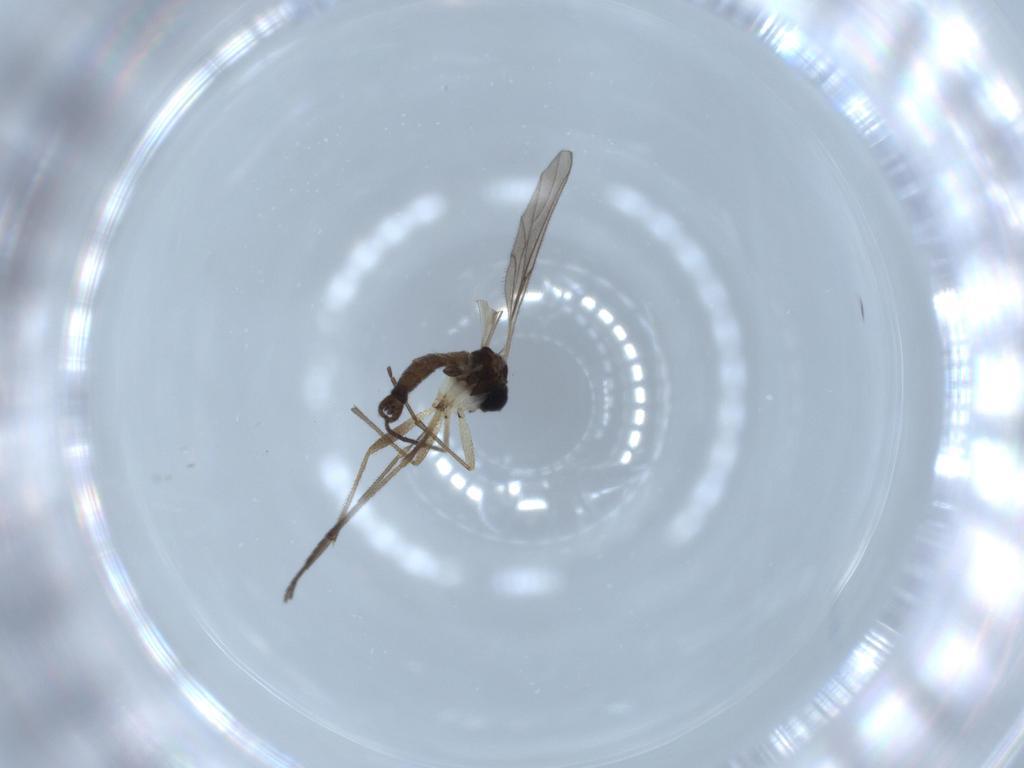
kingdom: Animalia
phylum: Arthropoda
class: Insecta
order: Diptera
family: Sciaridae
